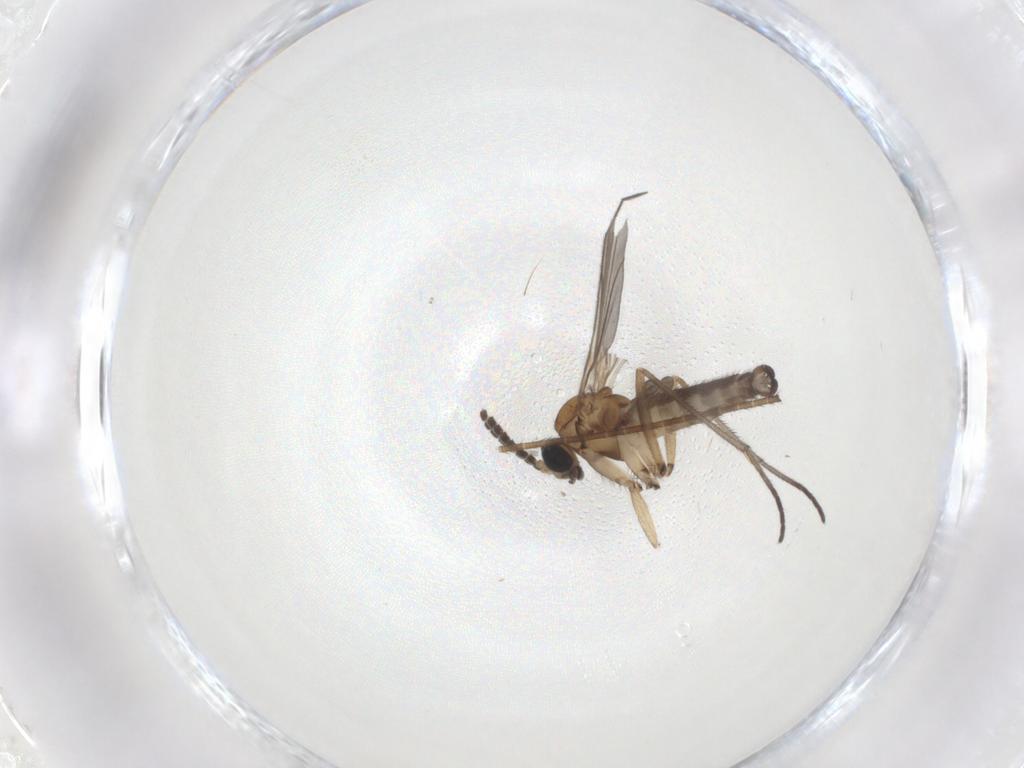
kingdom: Animalia
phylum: Arthropoda
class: Insecta
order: Diptera
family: Sciaridae
